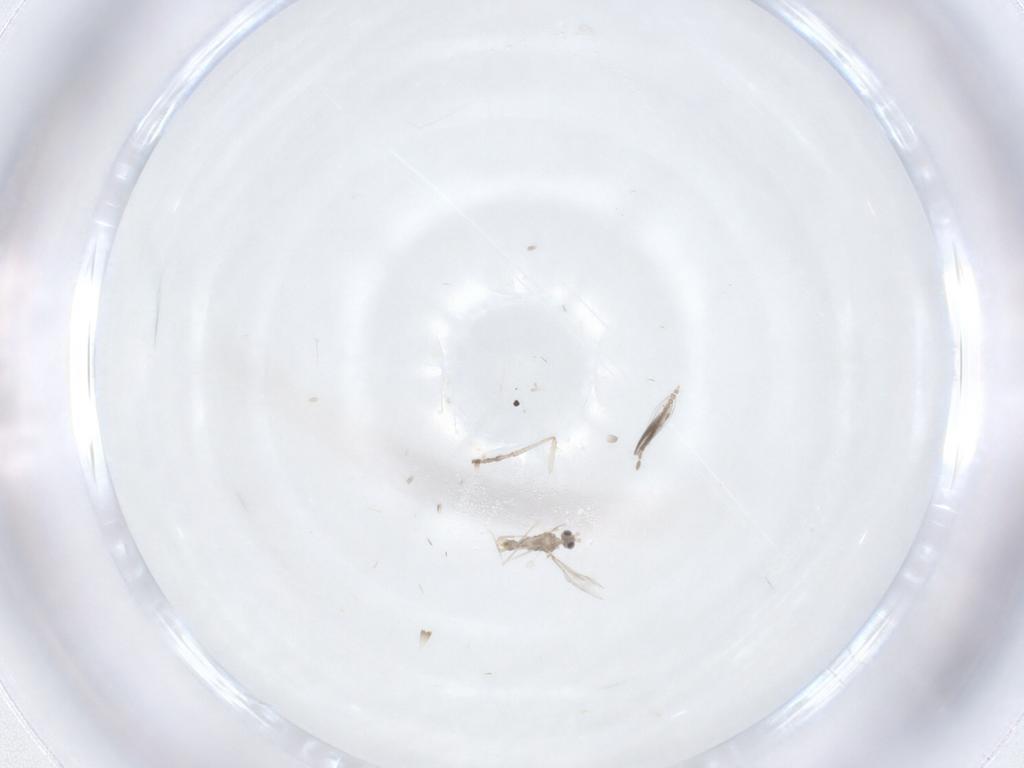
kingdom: Animalia
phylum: Arthropoda
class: Insecta
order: Diptera
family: Cecidomyiidae
